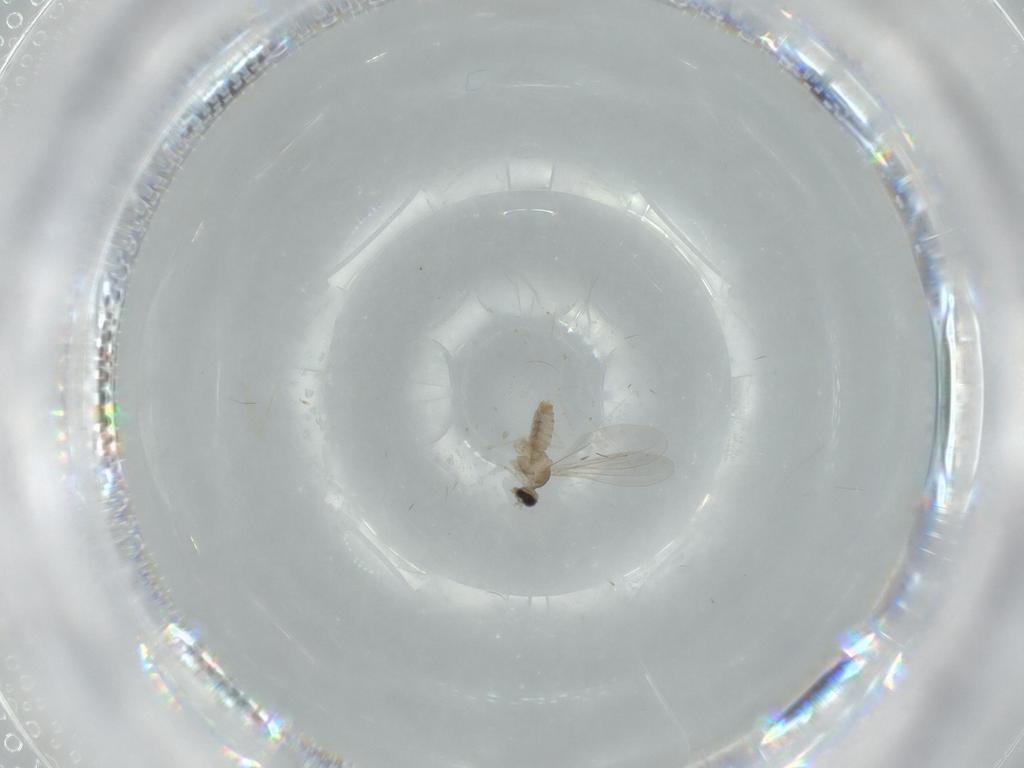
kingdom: Animalia
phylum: Arthropoda
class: Insecta
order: Diptera
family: Cecidomyiidae
